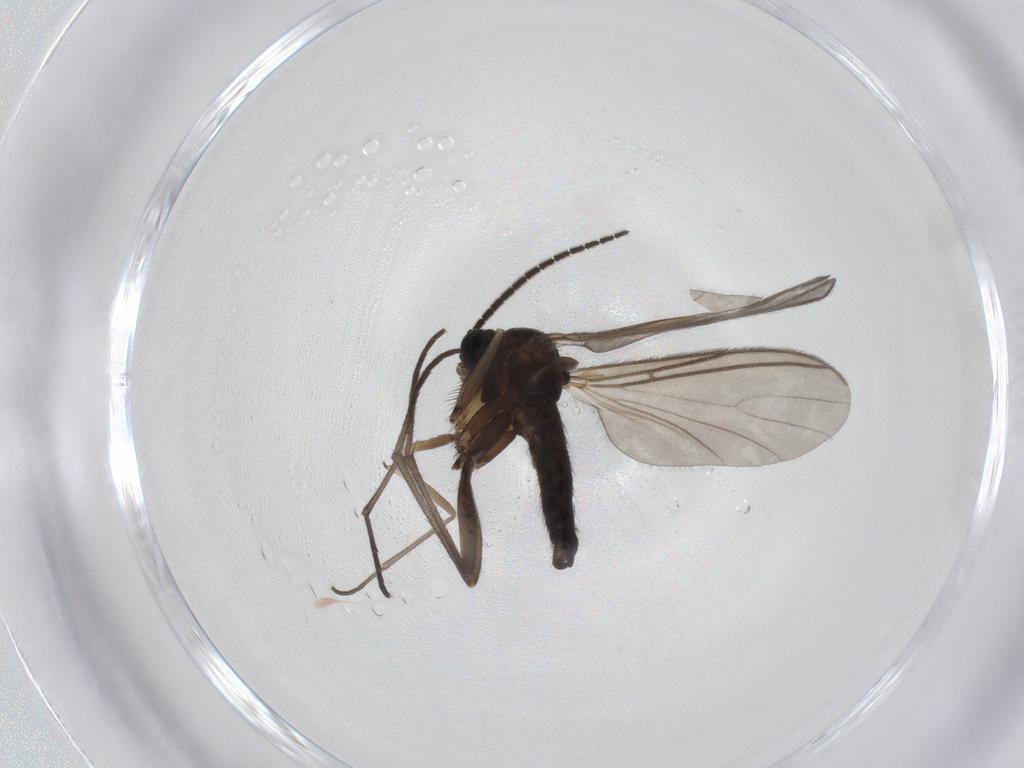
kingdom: Animalia
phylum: Arthropoda
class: Insecta
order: Diptera
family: Sciaridae
